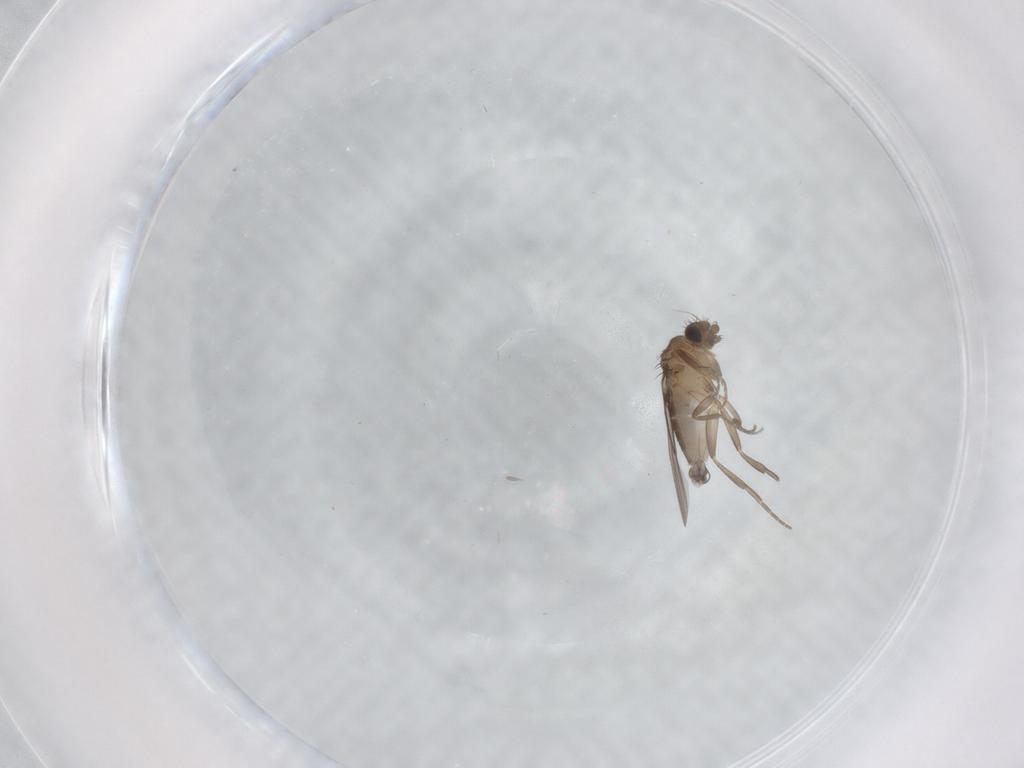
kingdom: Animalia
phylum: Arthropoda
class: Insecta
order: Diptera
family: Phoridae
